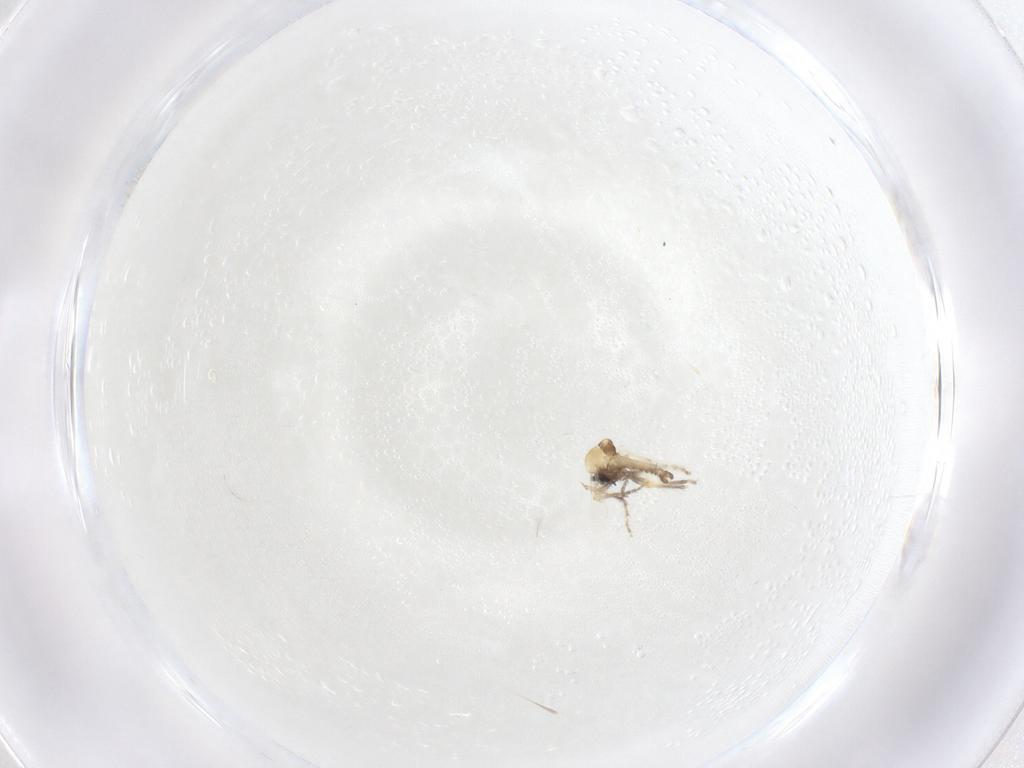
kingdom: Animalia
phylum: Arthropoda
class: Insecta
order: Diptera
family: Ceratopogonidae
